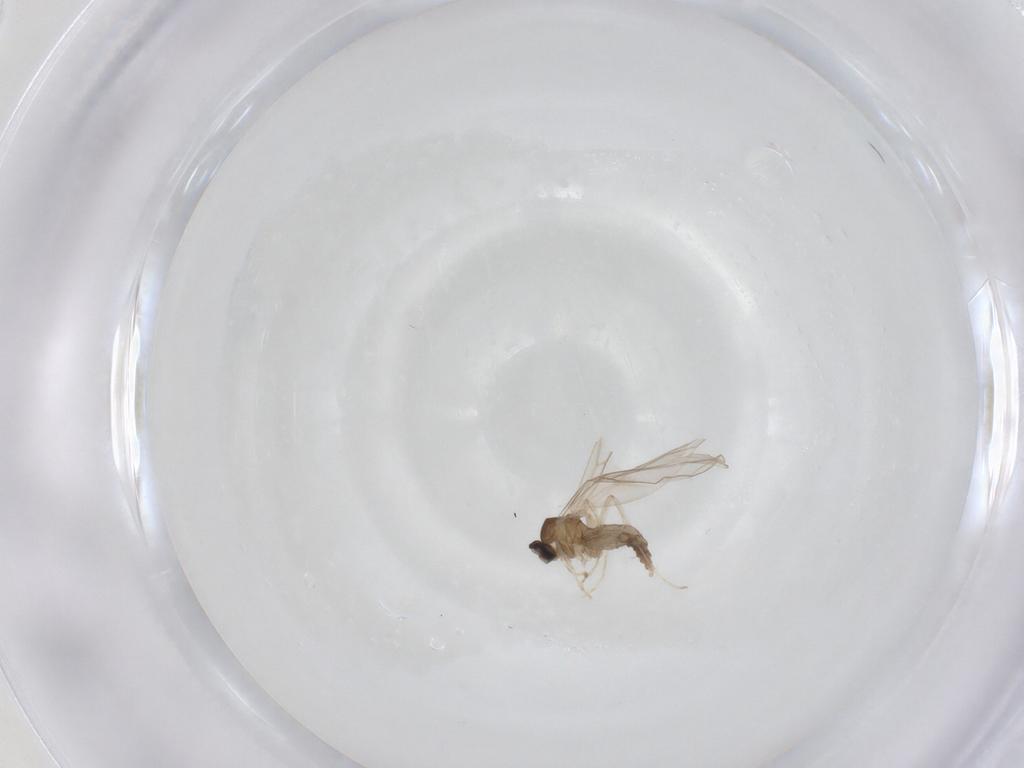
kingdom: Animalia
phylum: Arthropoda
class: Insecta
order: Diptera
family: Cecidomyiidae
